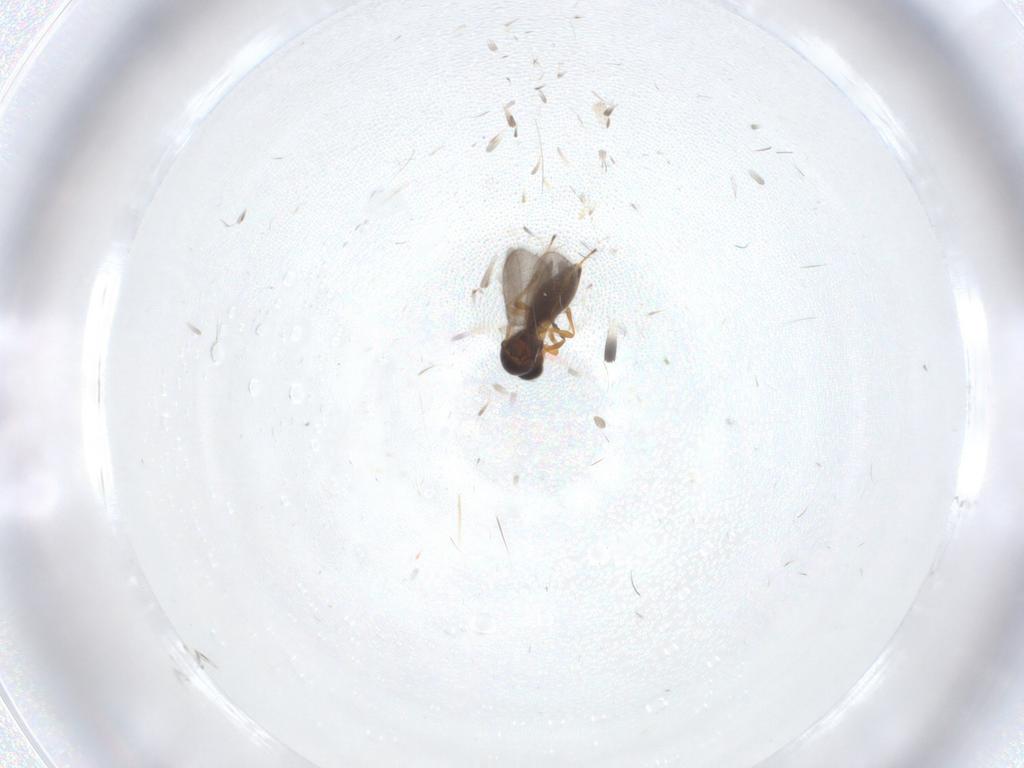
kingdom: Animalia
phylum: Arthropoda
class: Insecta
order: Hymenoptera
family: Platygastridae
